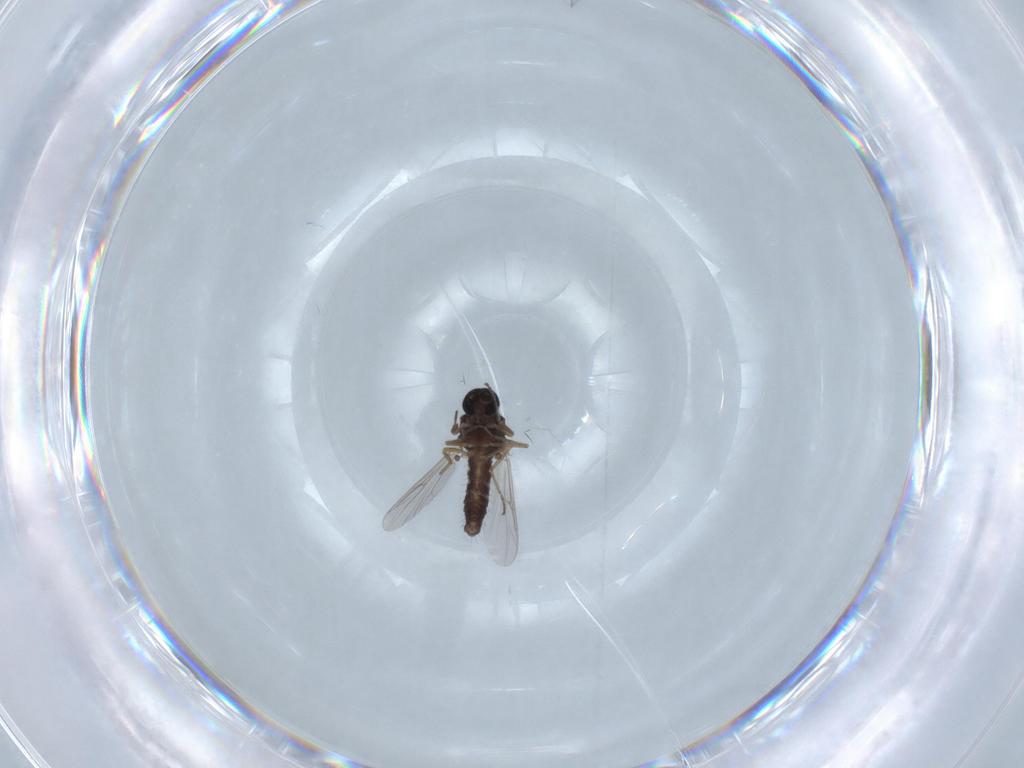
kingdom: Animalia
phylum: Arthropoda
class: Insecta
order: Diptera
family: Ceratopogonidae
